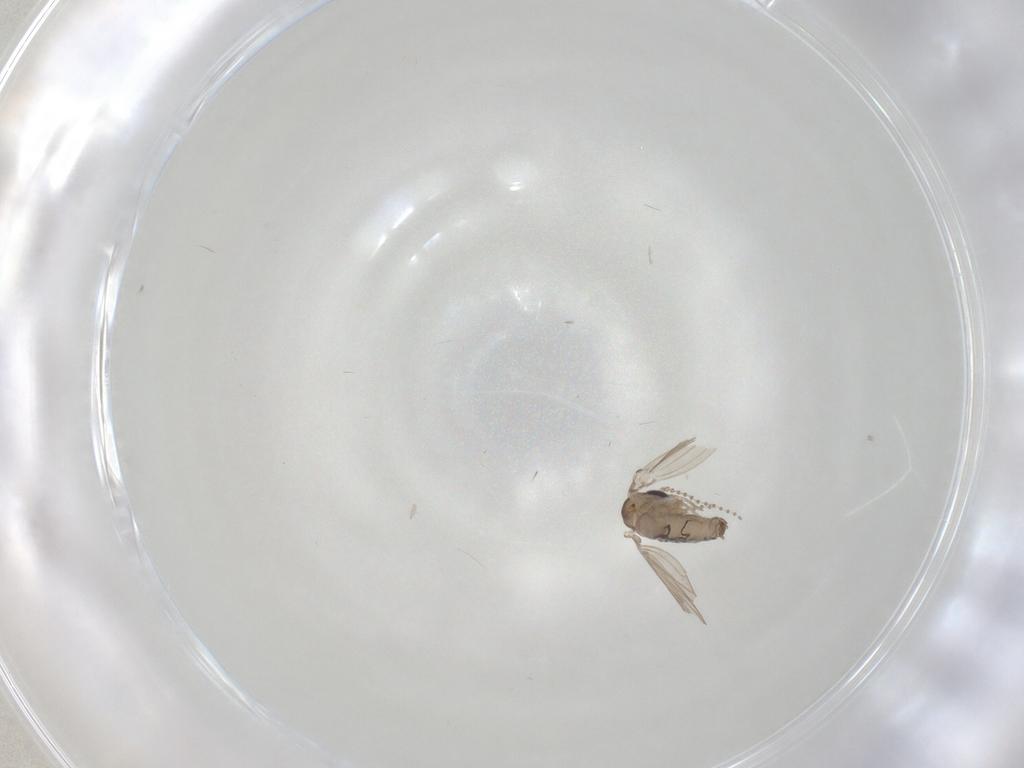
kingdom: Animalia
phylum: Arthropoda
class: Insecta
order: Diptera
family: Psychodidae
